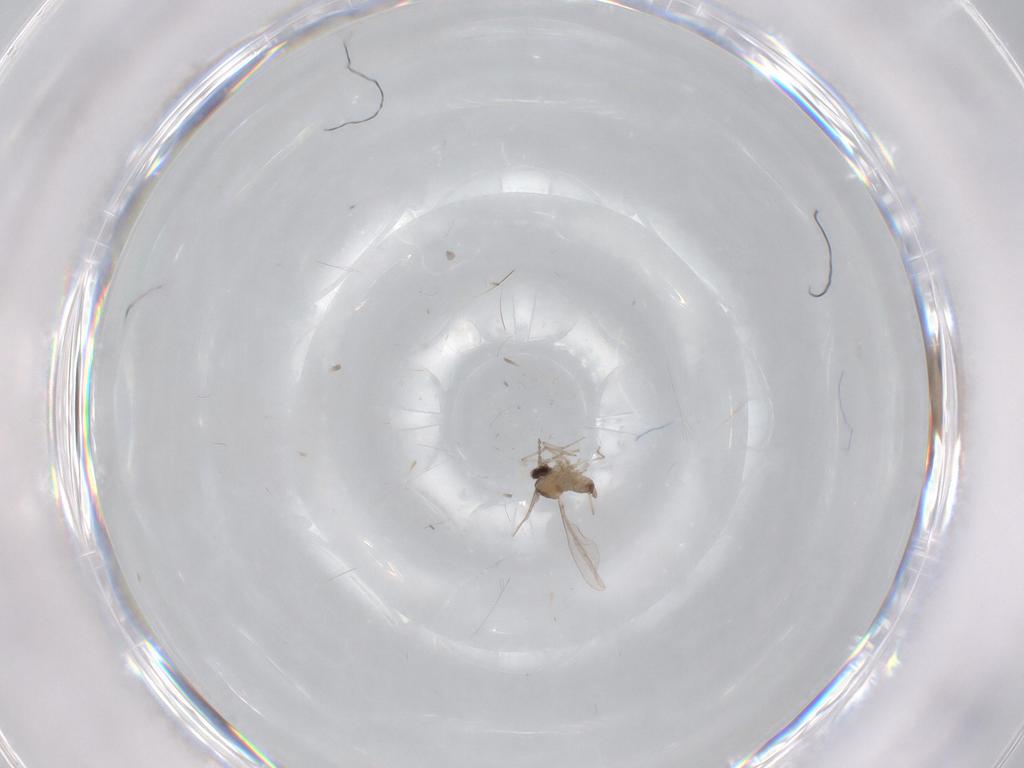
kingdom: Animalia
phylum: Arthropoda
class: Insecta
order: Diptera
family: Cecidomyiidae
